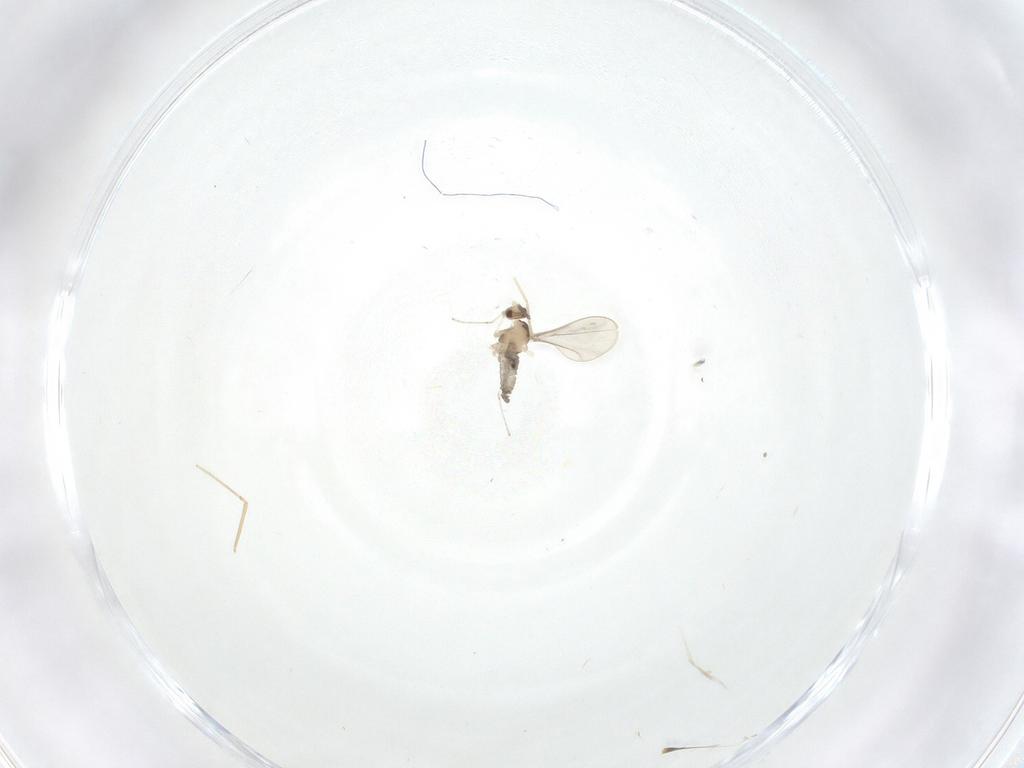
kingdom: Animalia
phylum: Arthropoda
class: Insecta
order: Diptera
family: Cecidomyiidae
